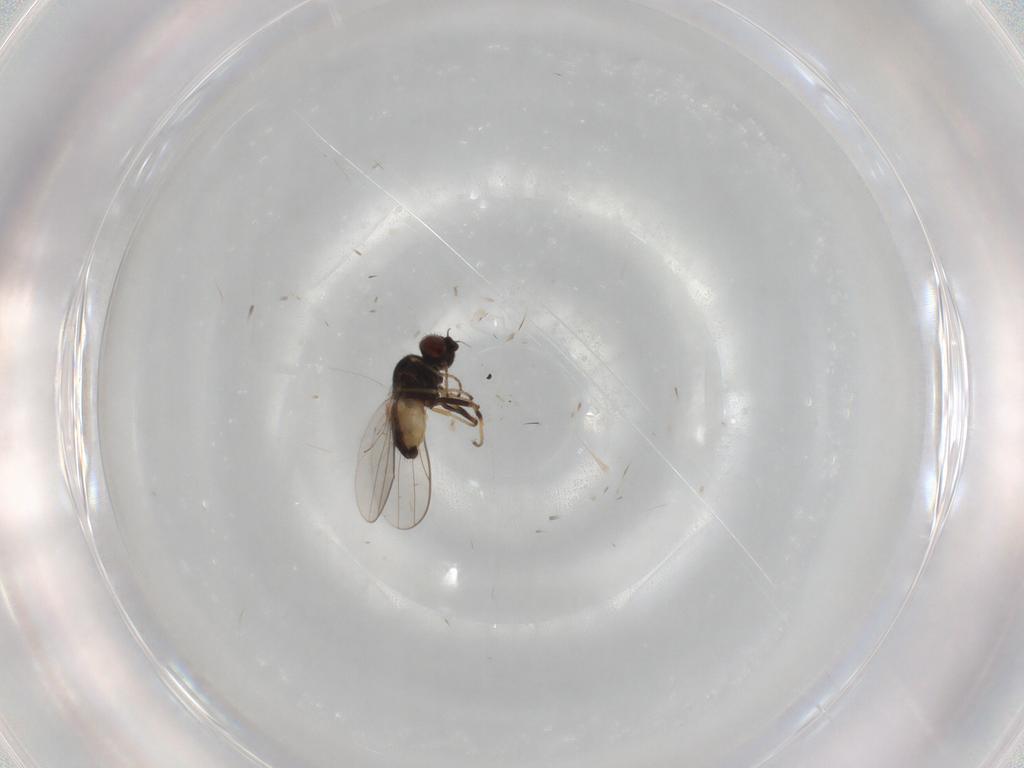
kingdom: Animalia
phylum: Arthropoda
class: Insecta
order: Diptera
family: Chloropidae
